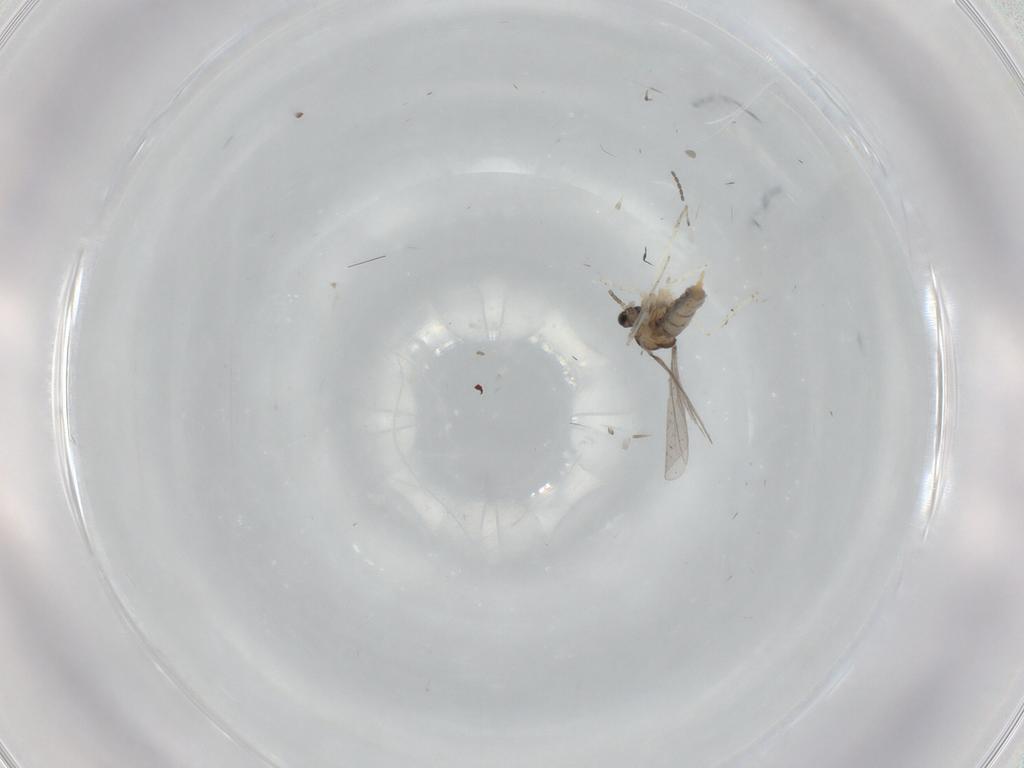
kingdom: Animalia
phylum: Arthropoda
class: Insecta
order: Diptera
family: Cecidomyiidae
